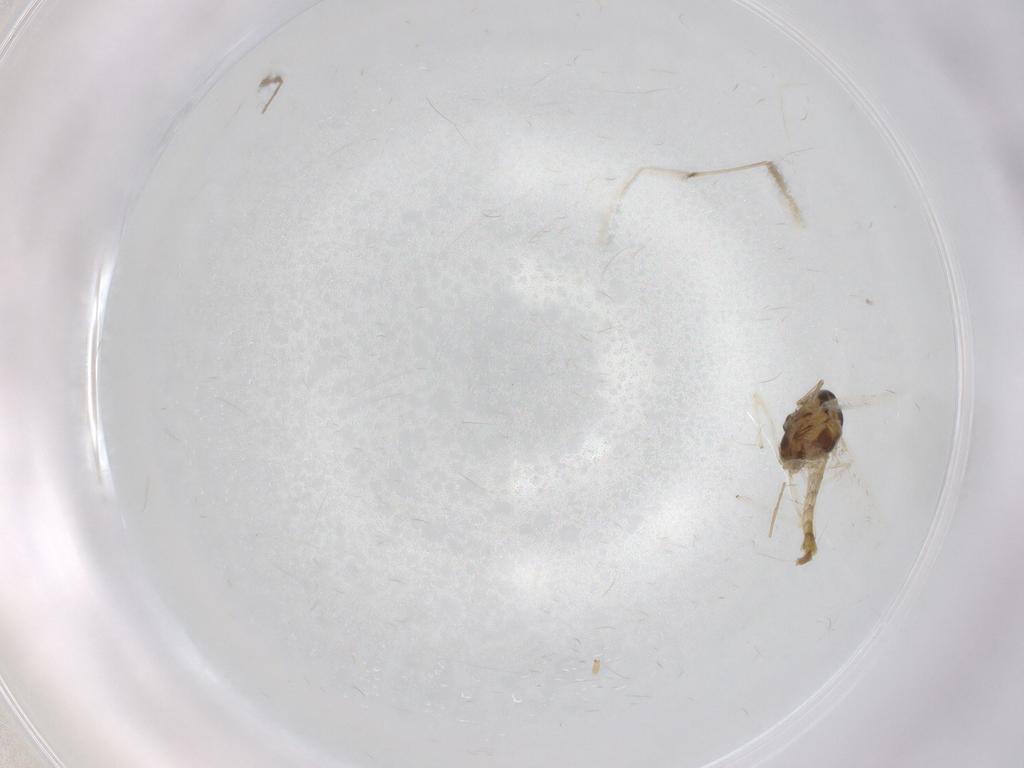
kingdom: Animalia
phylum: Arthropoda
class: Insecta
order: Diptera
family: Chironomidae
